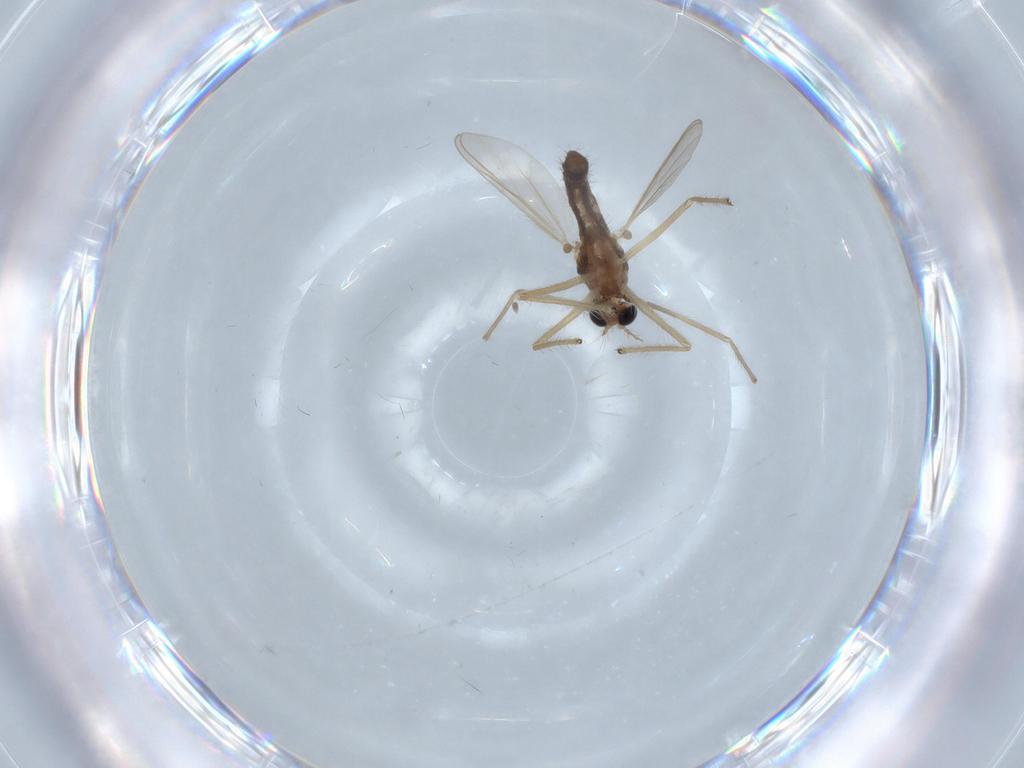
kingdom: Animalia
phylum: Arthropoda
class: Insecta
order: Diptera
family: Chironomidae
